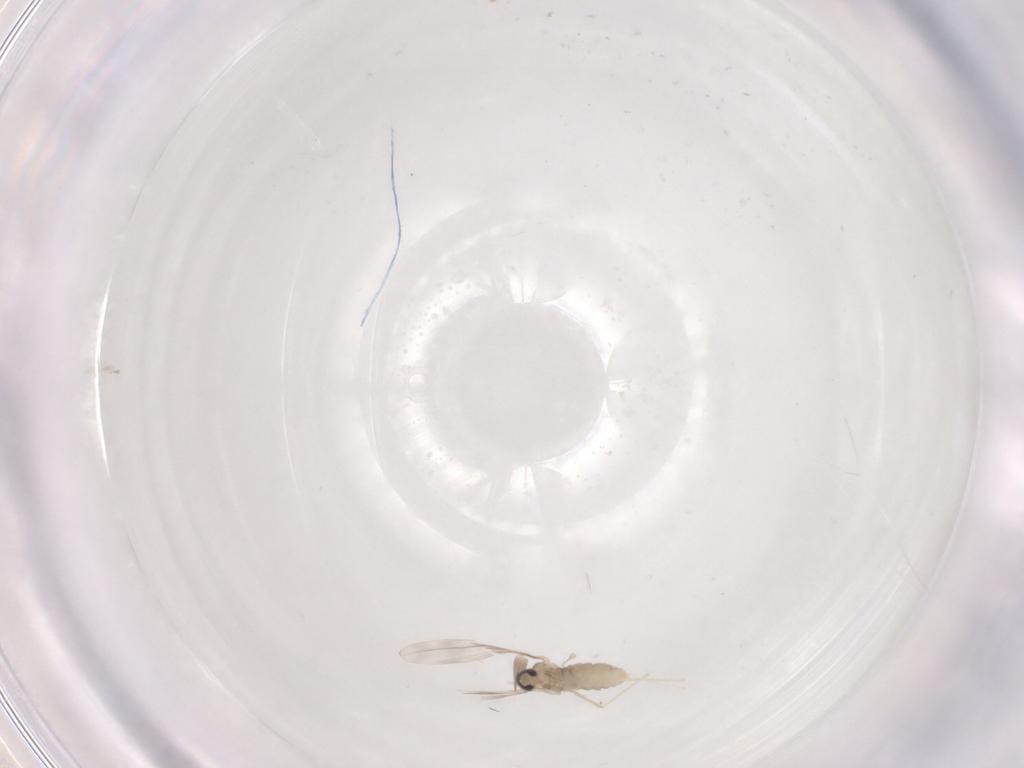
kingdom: Animalia
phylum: Arthropoda
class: Insecta
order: Diptera
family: Cecidomyiidae
